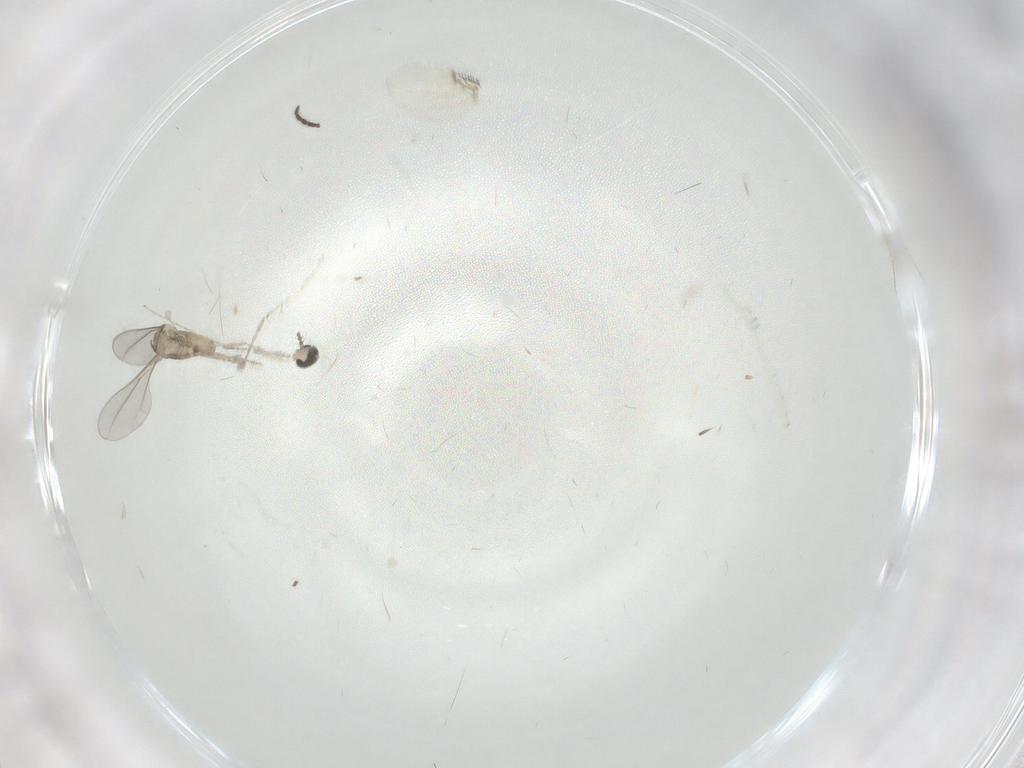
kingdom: Animalia
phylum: Arthropoda
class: Insecta
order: Diptera
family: Cecidomyiidae
